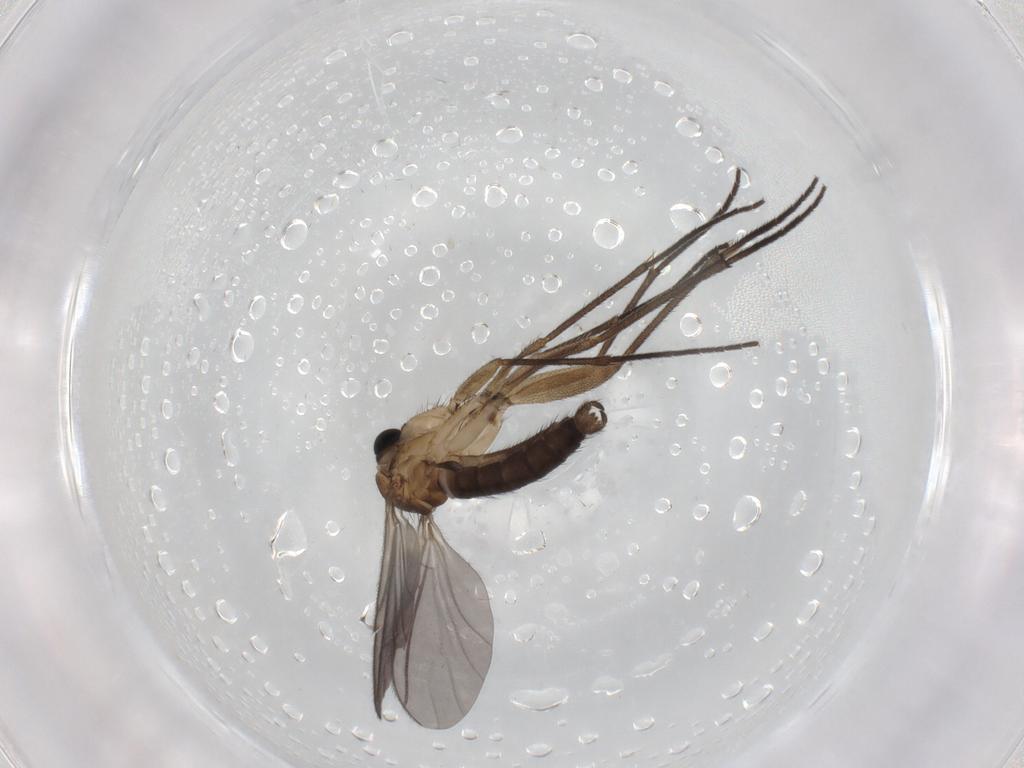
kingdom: Animalia
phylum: Arthropoda
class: Insecta
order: Diptera
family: Sciaridae
